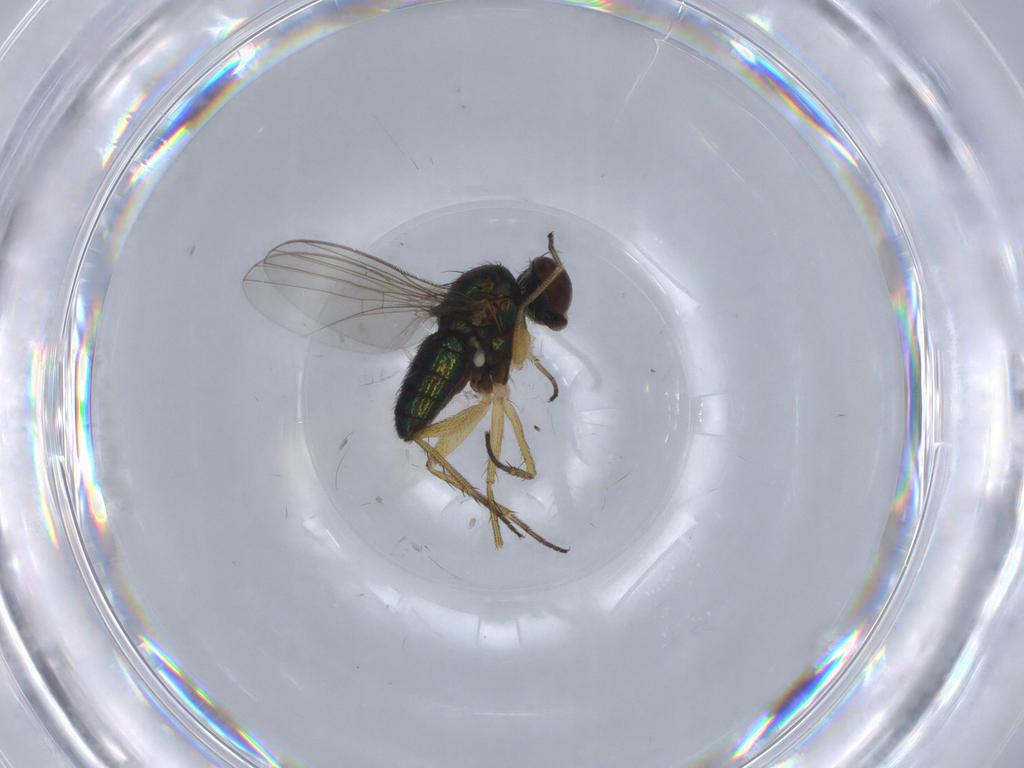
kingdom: Animalia
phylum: Arthropoda
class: Insecta
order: Diptera
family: Dolichopodidae
